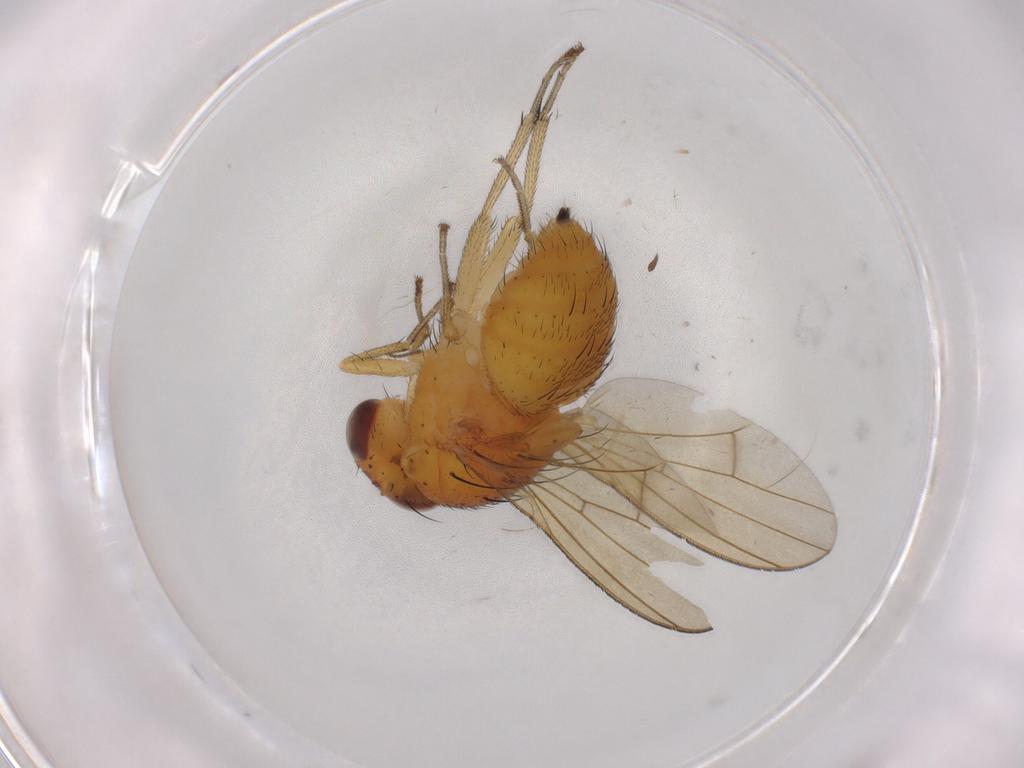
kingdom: Animalia
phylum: Arthropoda
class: Insecta
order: Diptera
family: Sciaridae
